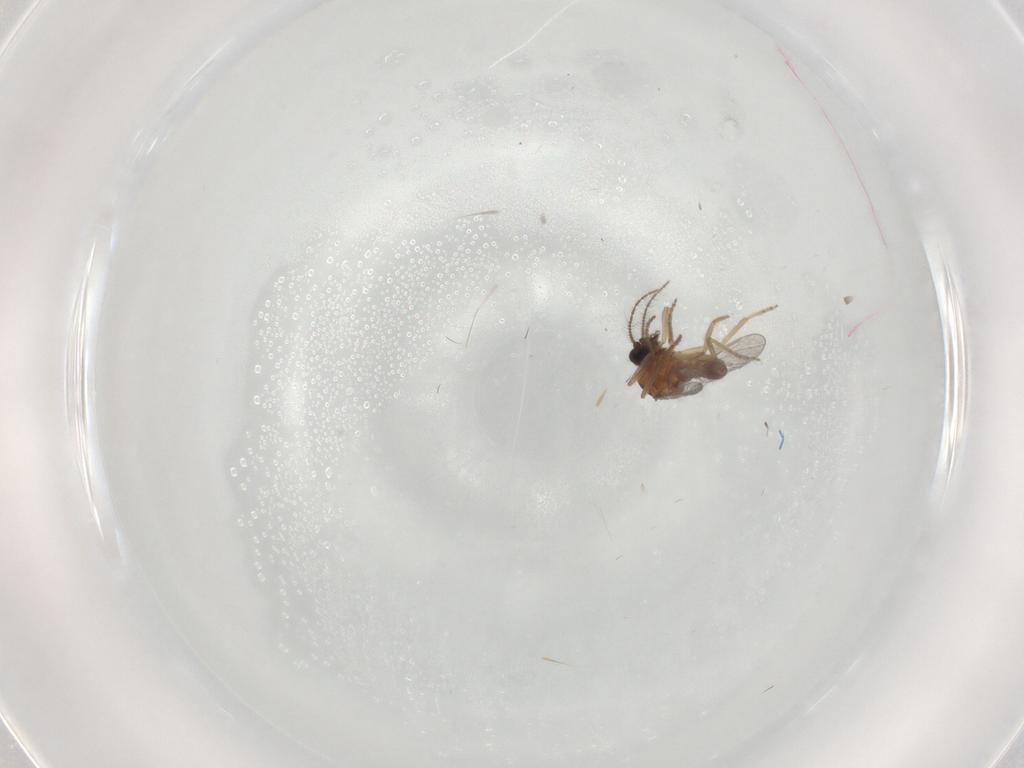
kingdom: Animalia
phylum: Arthropoda
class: Insecta
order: Diptera
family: Ceratopogonidae
